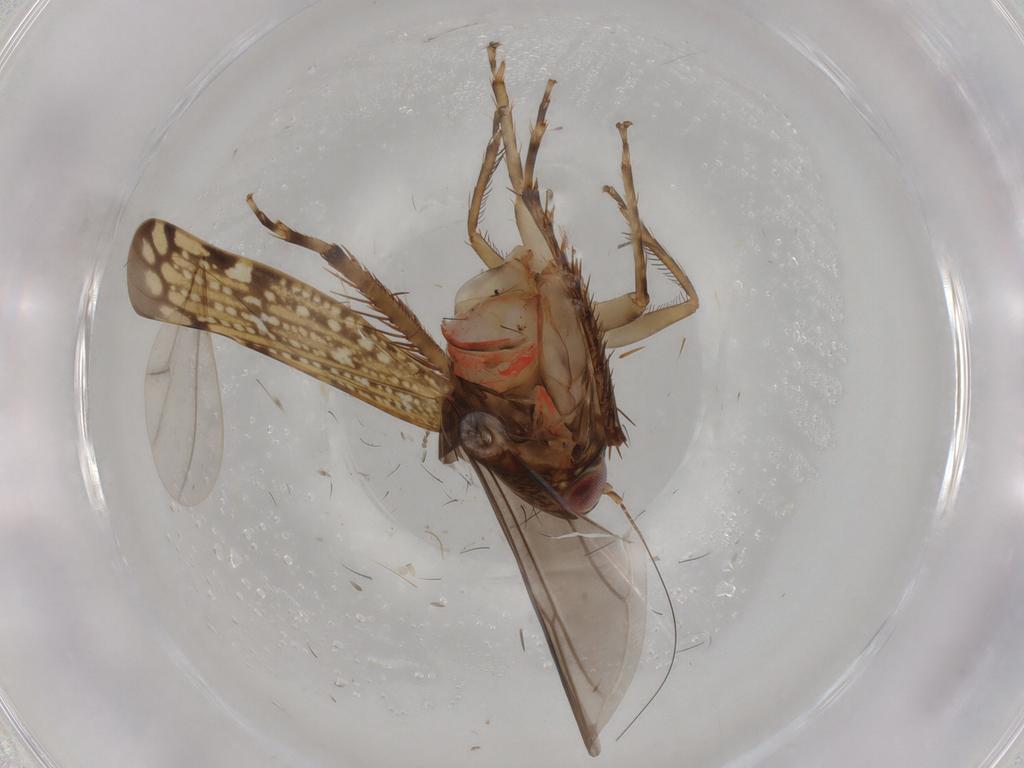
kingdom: Animalia
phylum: Arthropoda
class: Insecta
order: Hemiptera
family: Cicadellidae
